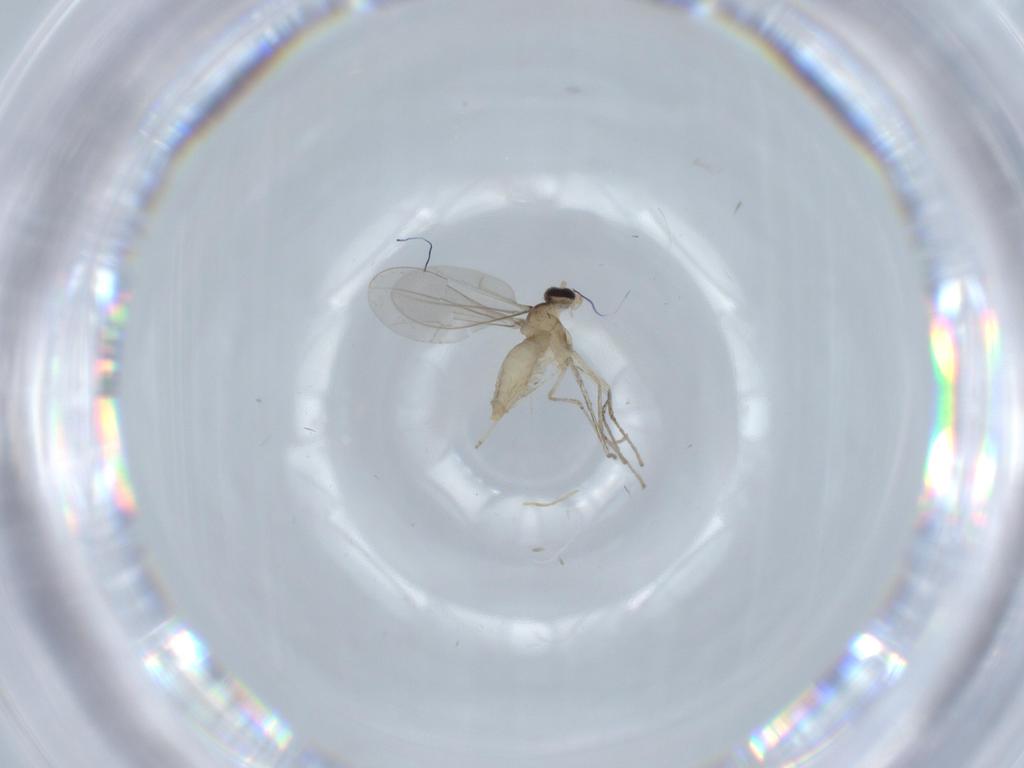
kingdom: Animalia
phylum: Arthropoda
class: Insecta
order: Diptera
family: Cecidomyiidae
